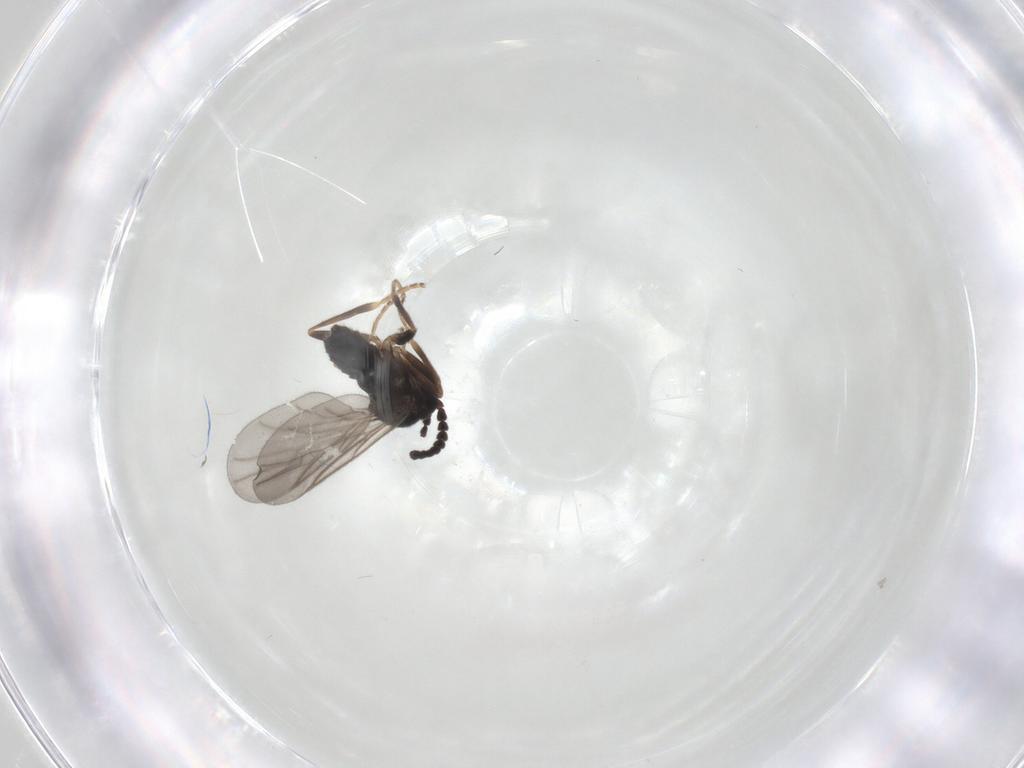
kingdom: Animalia
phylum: Arthropoda
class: Insecta
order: Diptera
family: Scatopsidae
